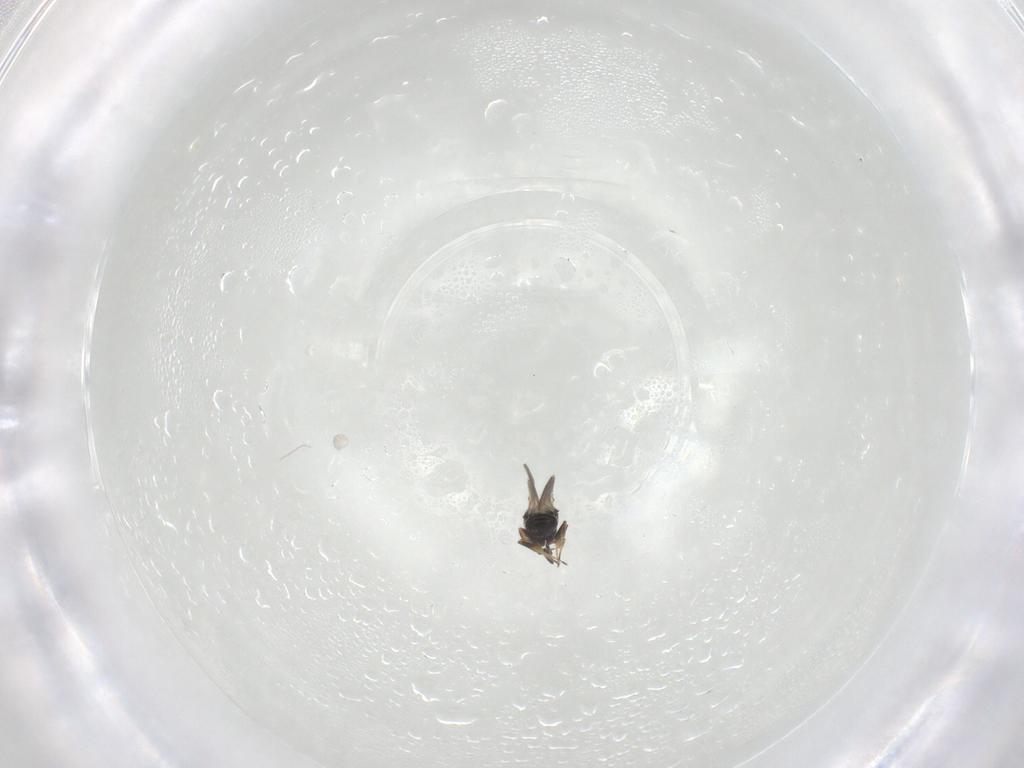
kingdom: Animalia
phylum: Arthropoda
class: Insecta
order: Hymenoptera
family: Scelionidae
